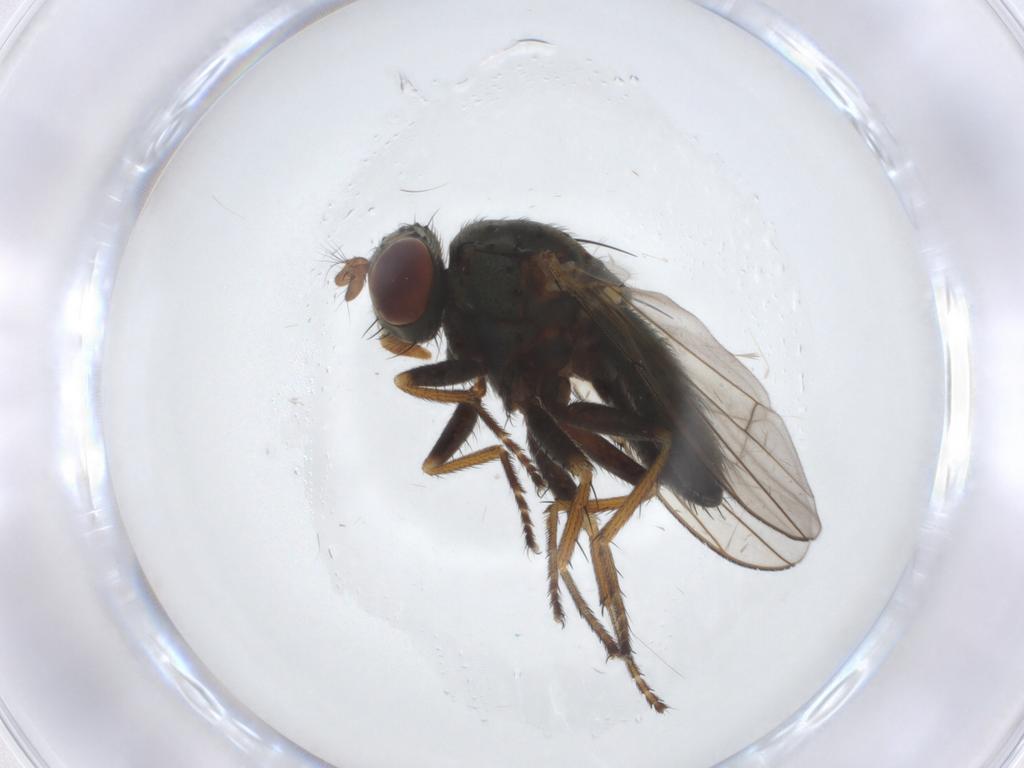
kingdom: Animalia
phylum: Arthropoda
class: Insecta
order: Diptera
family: Ephydridae
